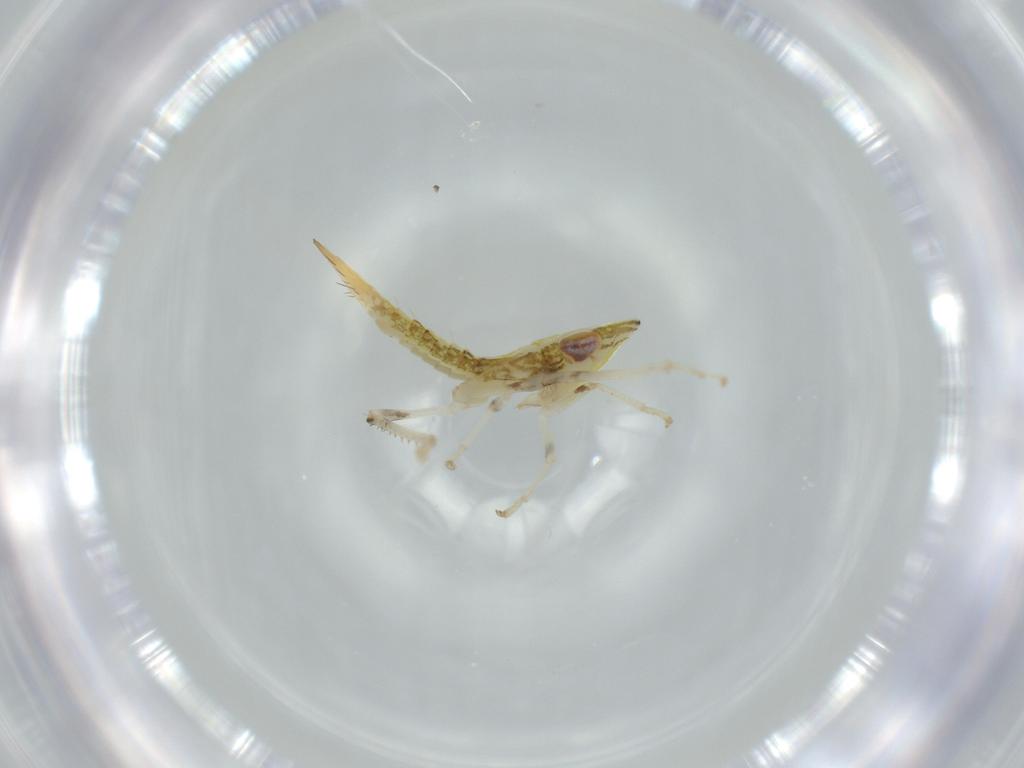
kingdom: Animalia
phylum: Arthropoda
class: Insecta
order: Hemiptera
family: Cicadellidae
